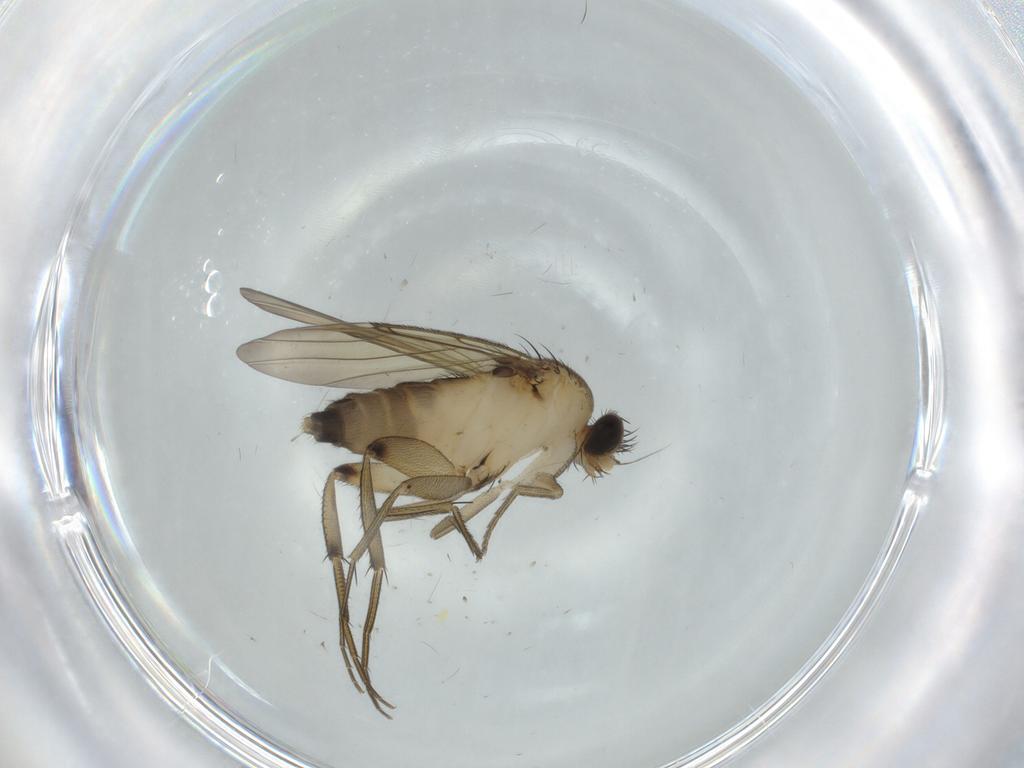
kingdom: Animalia
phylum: Arthropoda
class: Insecta
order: Diptera
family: Phoridae
